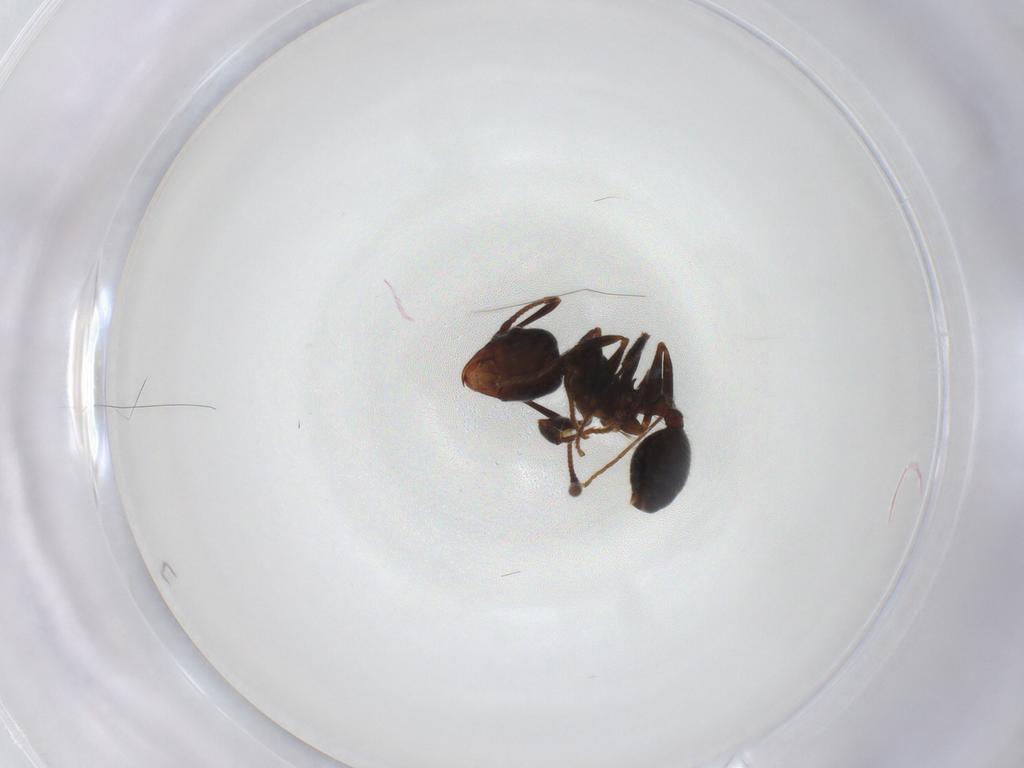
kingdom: Animalia
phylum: Arthropoda
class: Insecta
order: Hymenoptera
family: Formicidae
